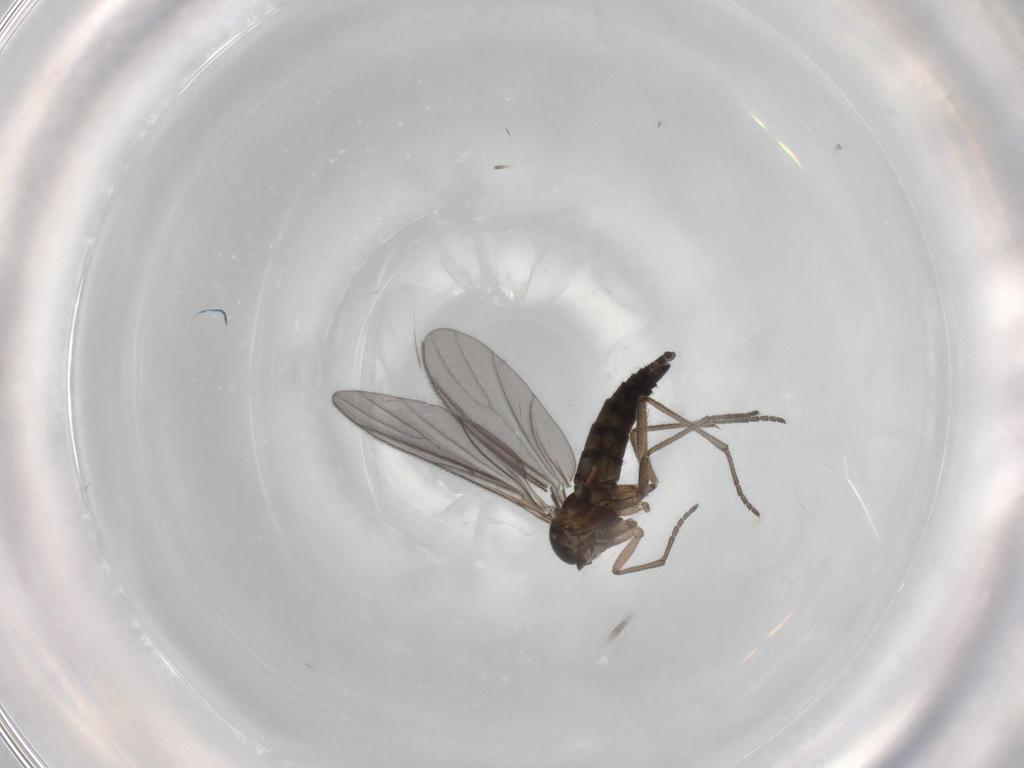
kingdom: Animalia
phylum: Arthropoda
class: Insecta
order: Diptera
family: Sciaridae
